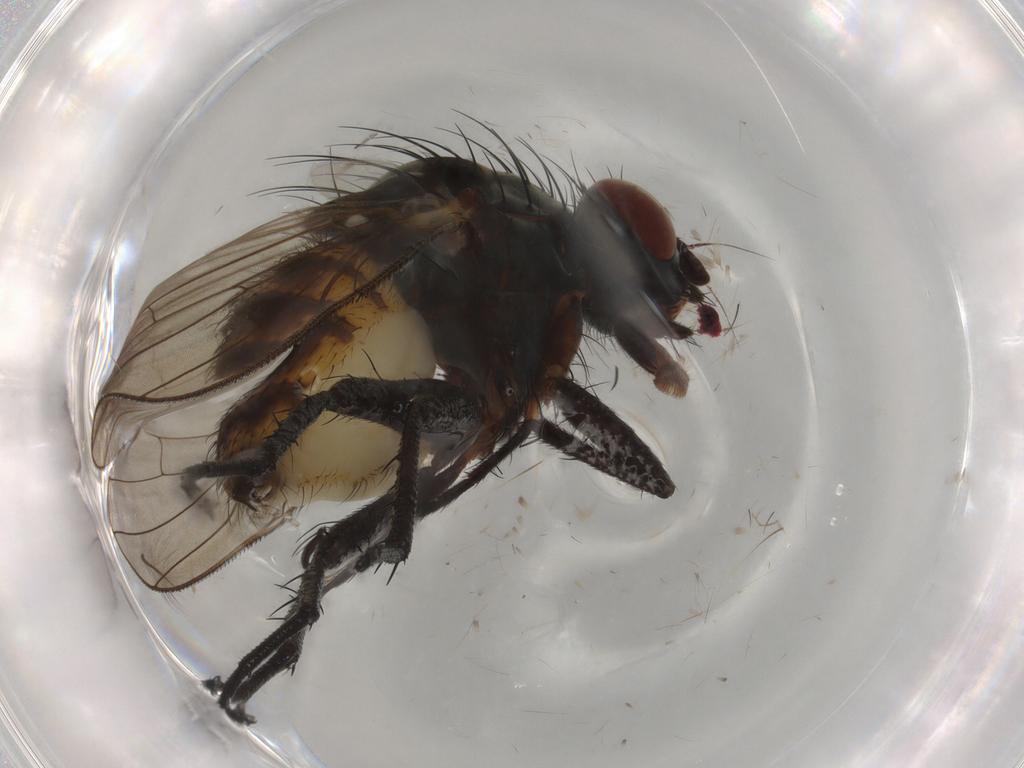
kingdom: Animalia
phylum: Arthropoda
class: Insecta
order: Diptera
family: Anthomyiidae
